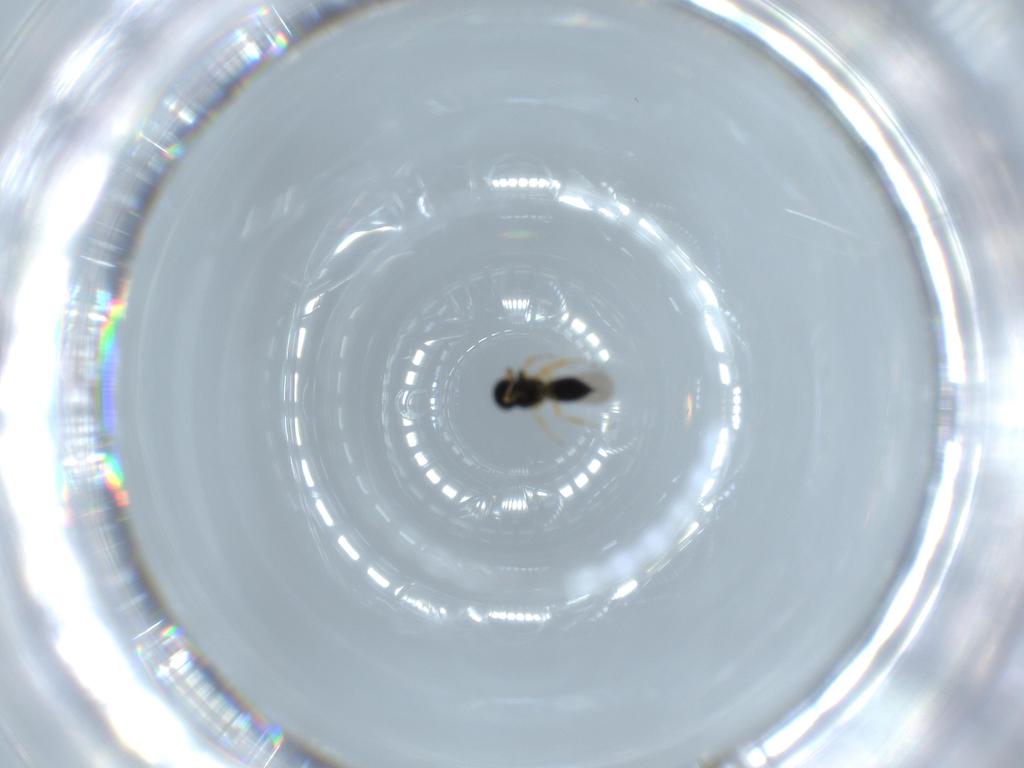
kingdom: Animalia
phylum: Arthropoda
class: Insecta
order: Hymenoptera
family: Scelionidae
